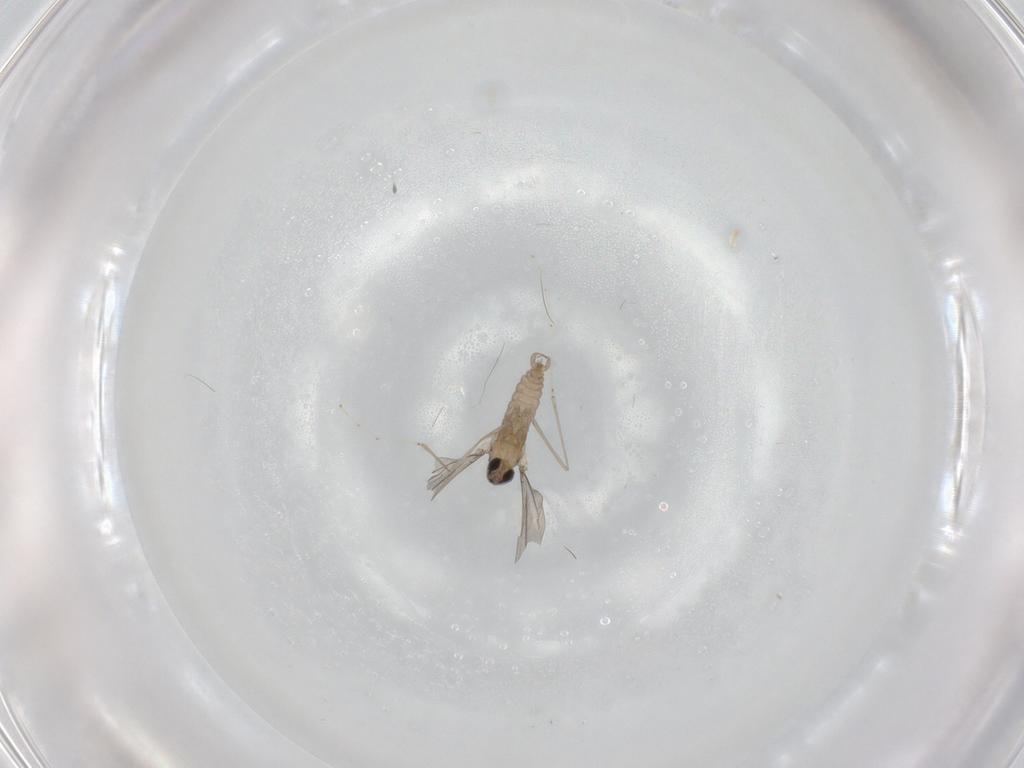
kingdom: Animalia
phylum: Arthropoda
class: Insecta
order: Diptera
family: Cecidomyiidae
